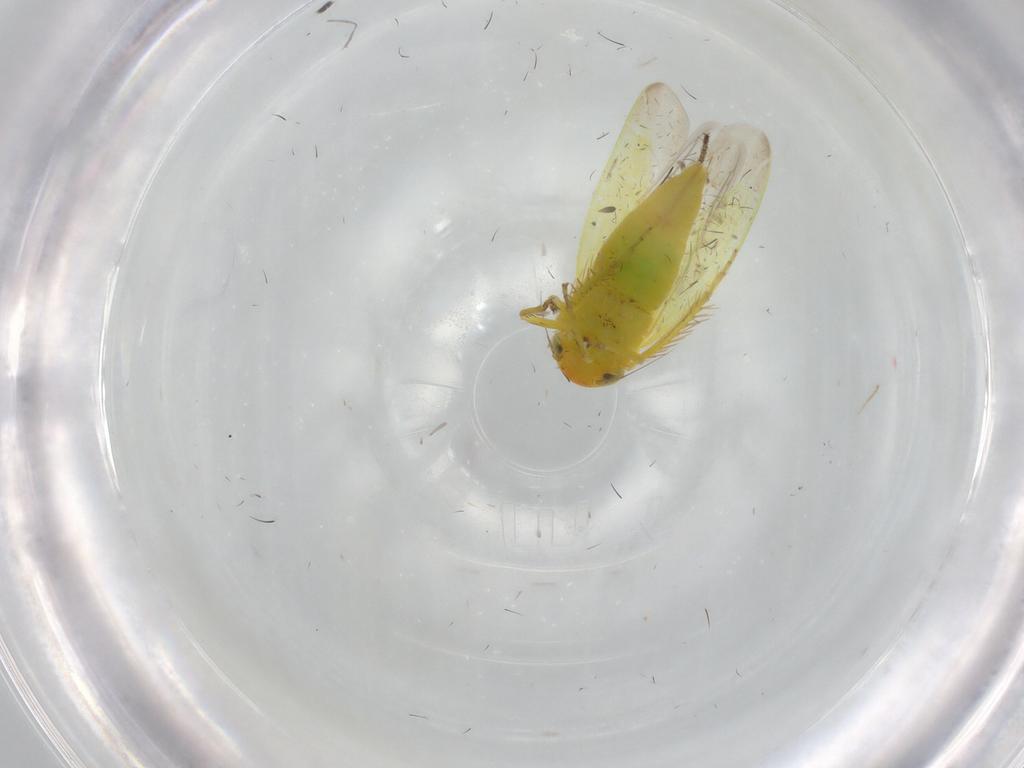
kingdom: Animalia
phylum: Arthropoda
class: Insecta
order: Hemiptera
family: Cicadellidae
